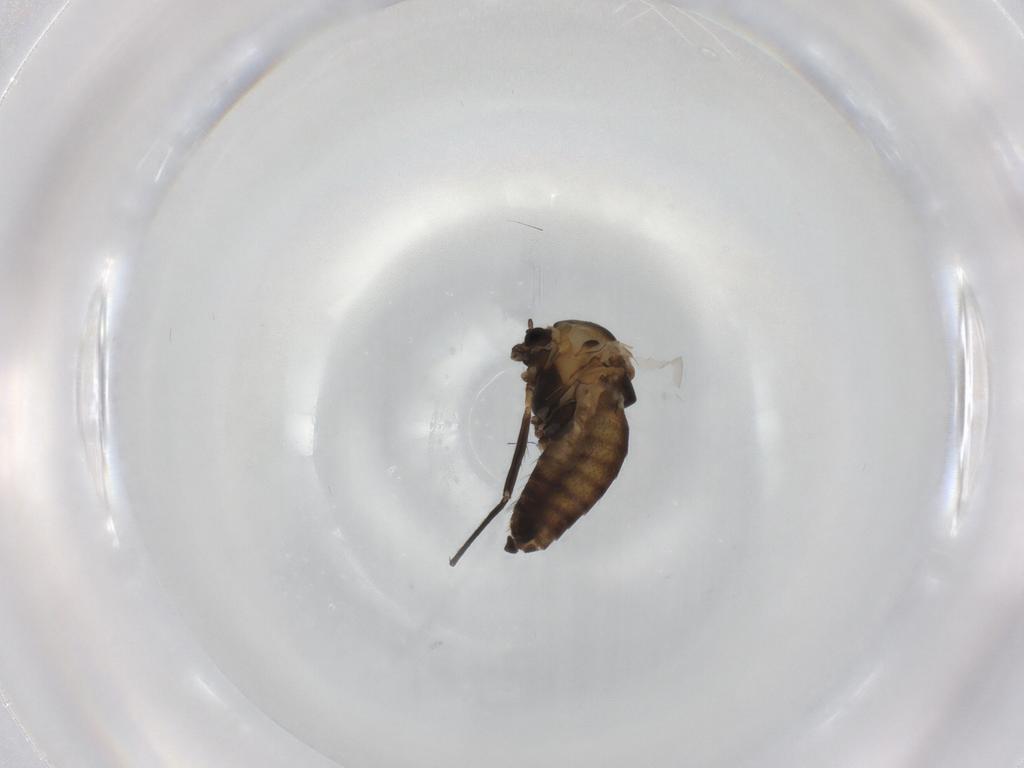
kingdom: Animalia
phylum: Arthropoda
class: Insecta
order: Diptera
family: Chironomidae
